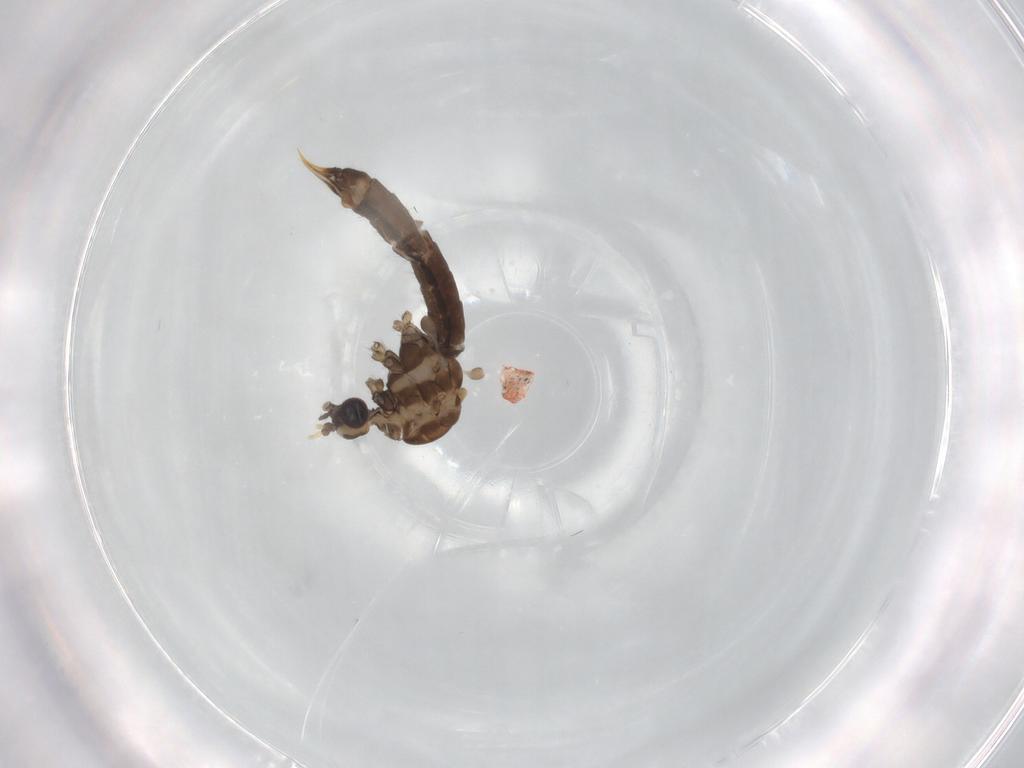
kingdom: Animalia
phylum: Arthropoda
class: Insecta
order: Diptera
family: Limoniidae
